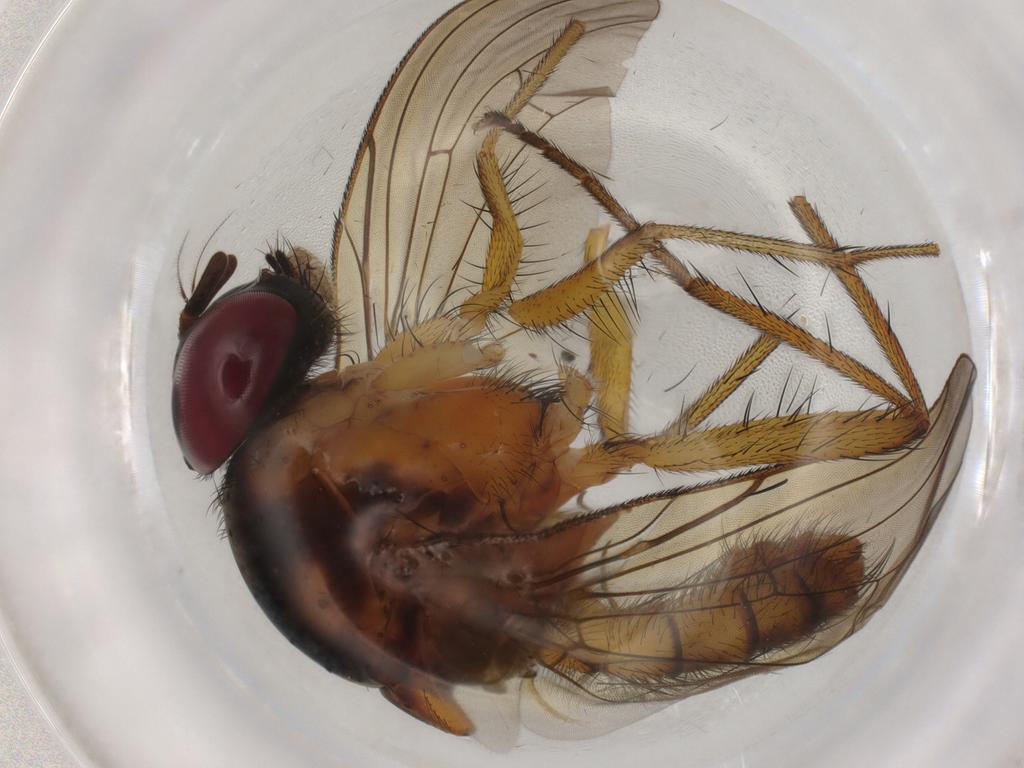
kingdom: Animalia
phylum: Arthropoda
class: Insecta
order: Diptera
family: Anthomyiidae
